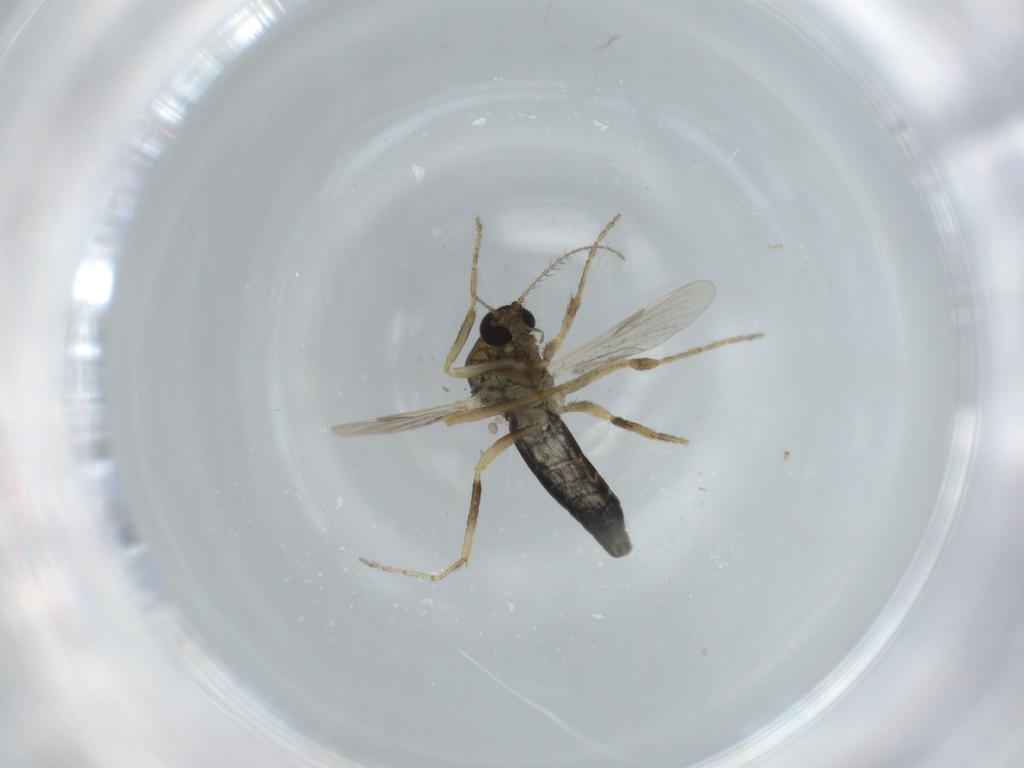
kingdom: Animalia
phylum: Arthropoda
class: Insecta
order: Diptera
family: Ceratopogonidae
